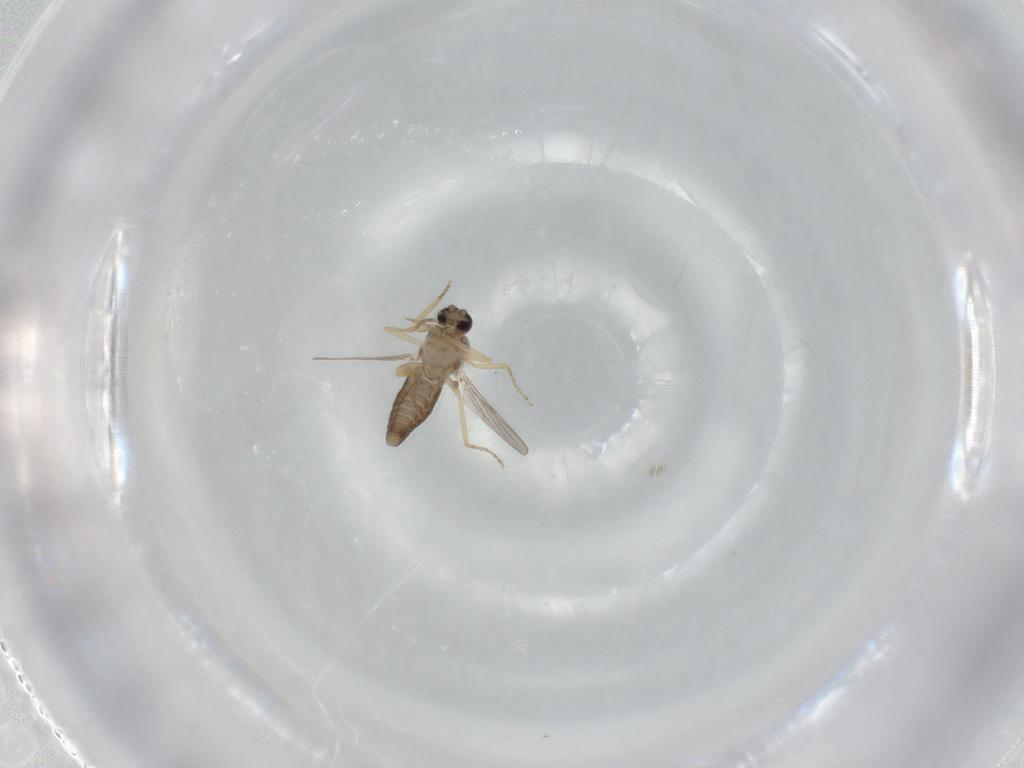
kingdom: Animalia
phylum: Arthropoda
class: Insecta
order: Diptera
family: Ceratopogonidae
